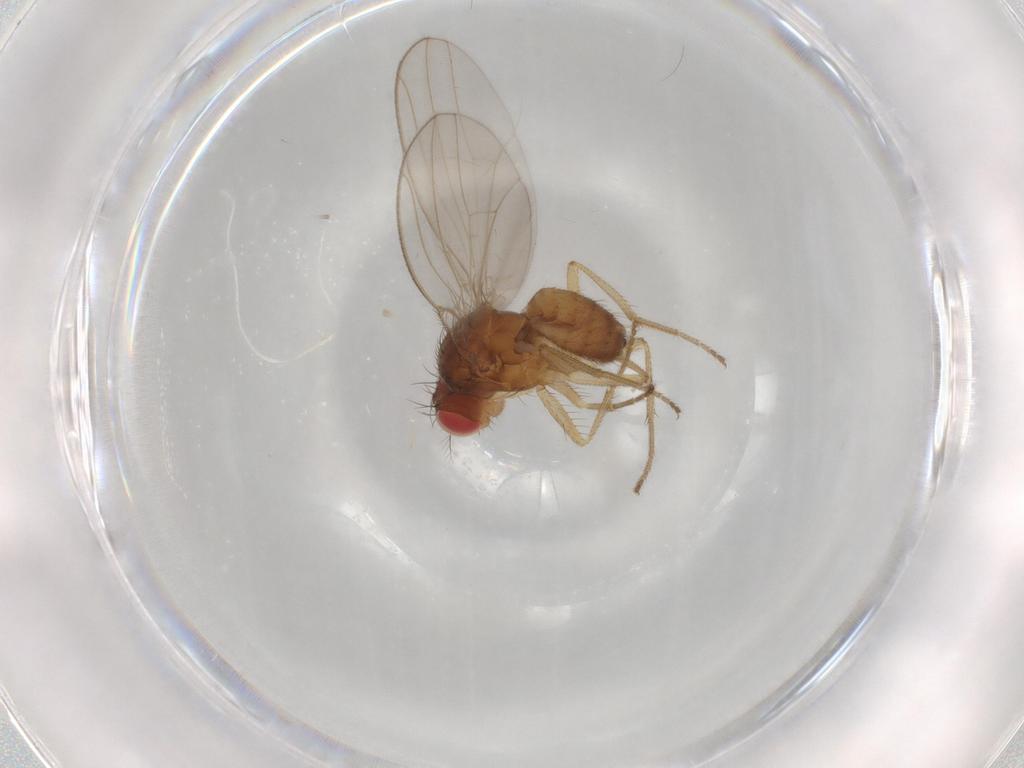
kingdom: Animalia
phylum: Arthropoda
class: Insecta
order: Diptera
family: Drosophilidae
